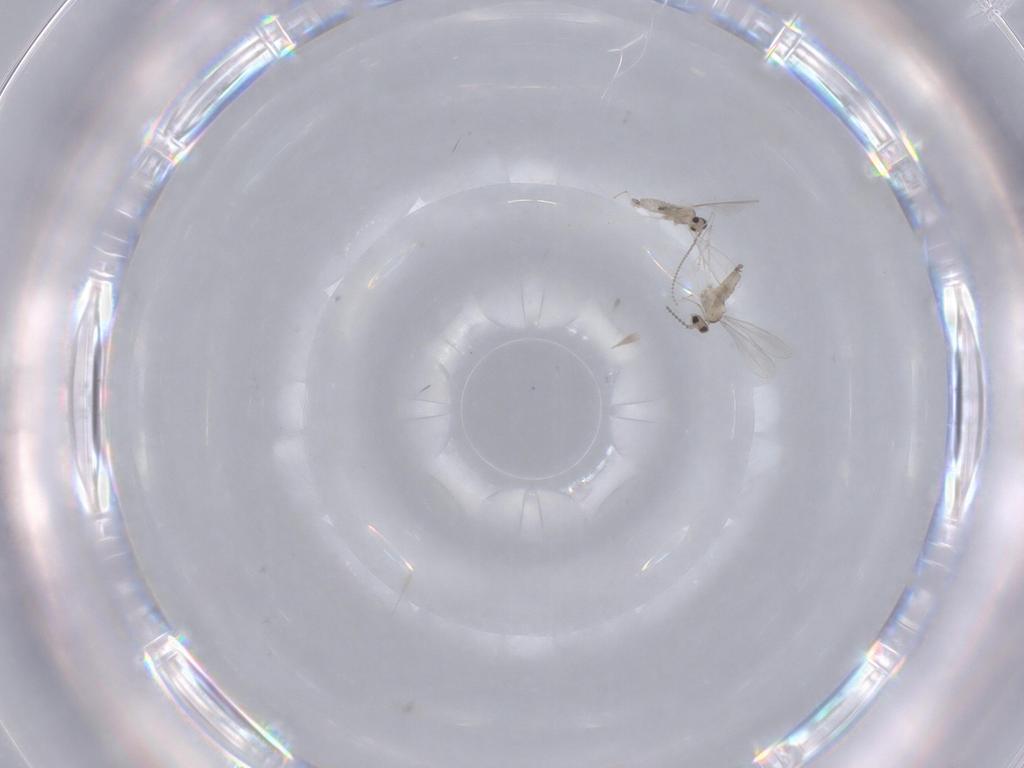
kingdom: Animalia
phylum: Arthropoda
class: Insecta
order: Diptera
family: Cecidomyiidae
